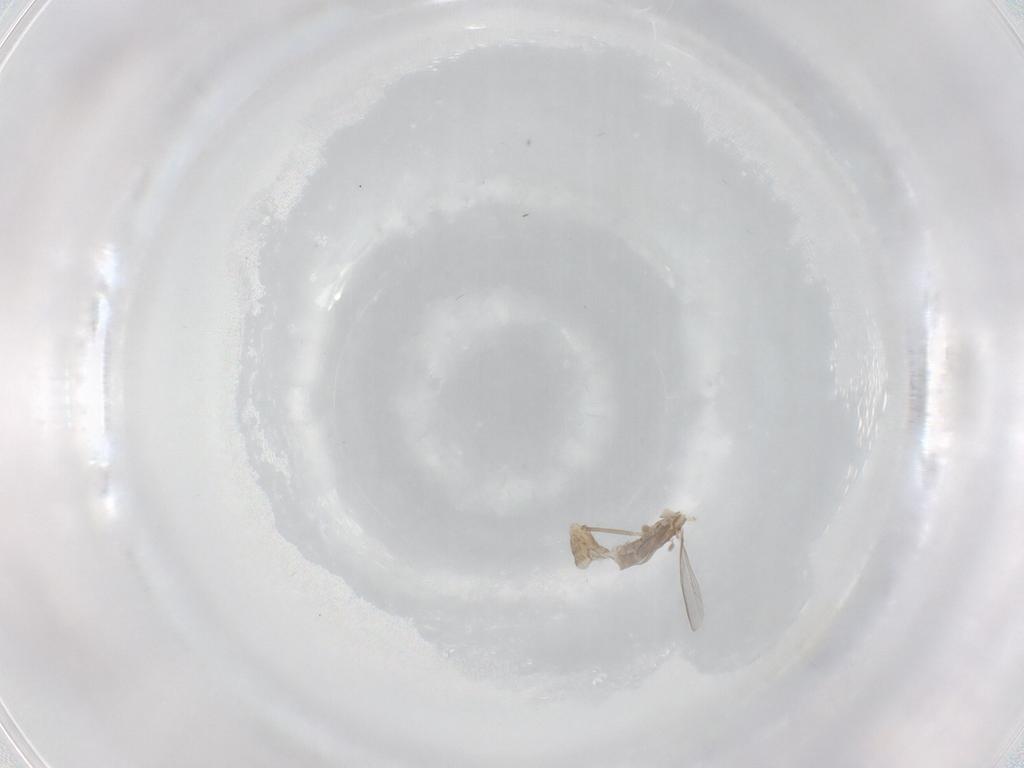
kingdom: Animalia
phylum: Arthropoda
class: Insecta
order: Diptera
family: Chironomidae
